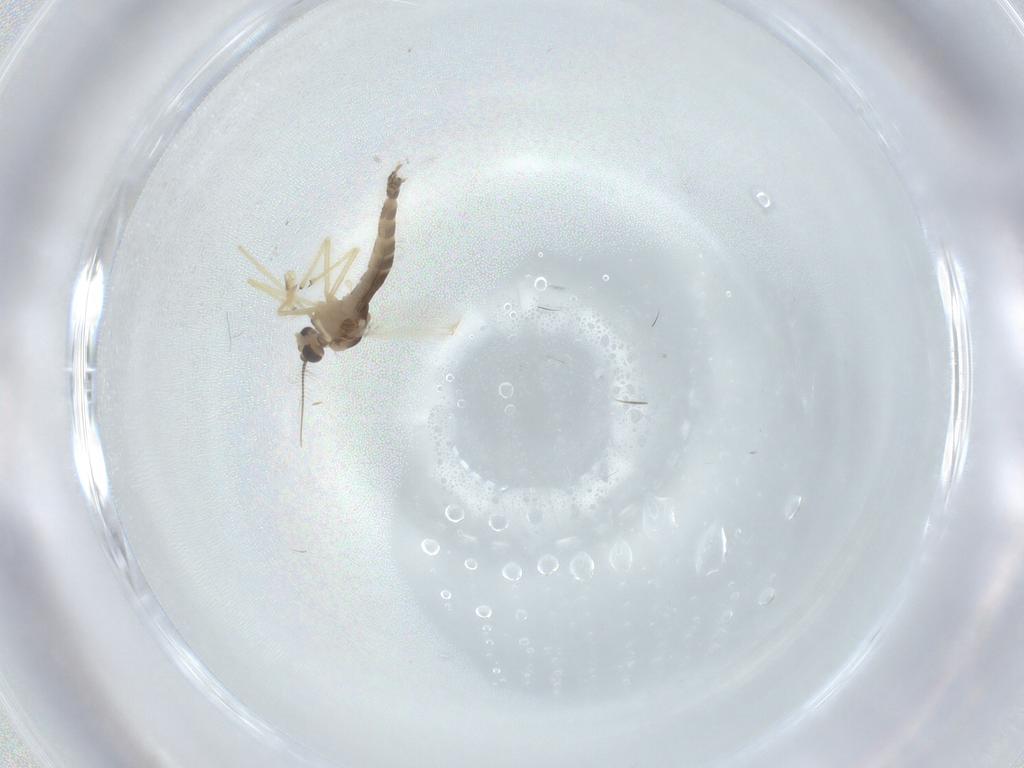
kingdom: Animalia
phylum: Arthropoda
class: Insecta
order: Diptera
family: Chironomidae
